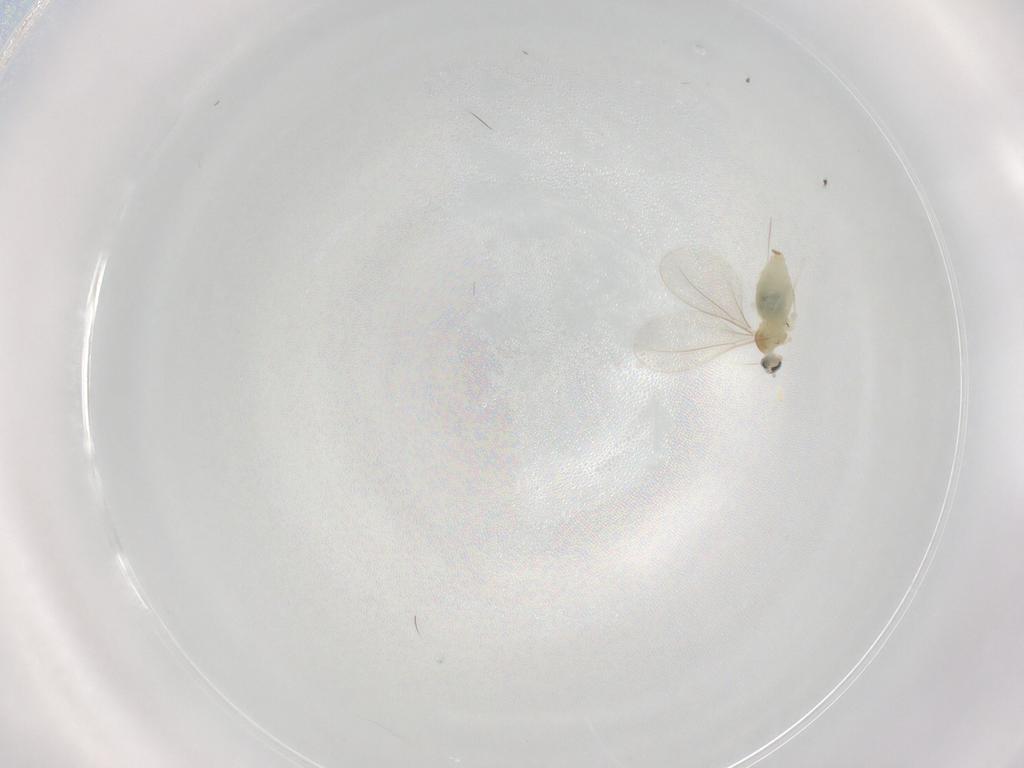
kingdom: Animalia
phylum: Arthropoda
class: Insecta
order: Diptera
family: Cecidomyiidae
